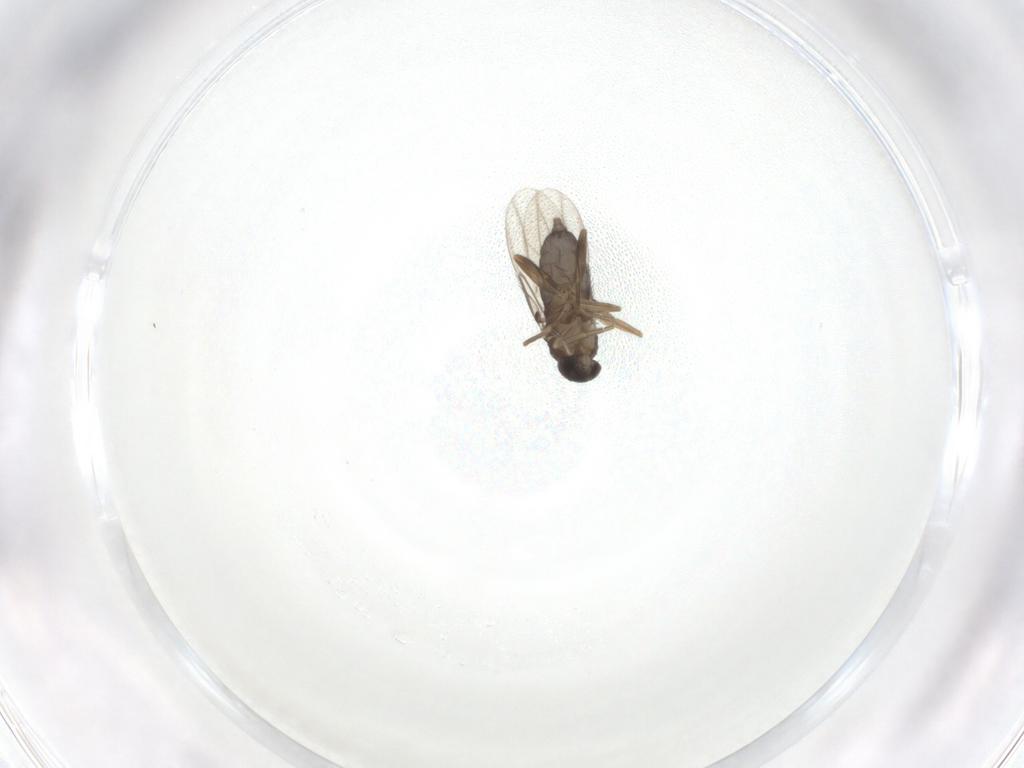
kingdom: Animalia
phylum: Arthropoda
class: Insecta
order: Diptera
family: Phoridae
